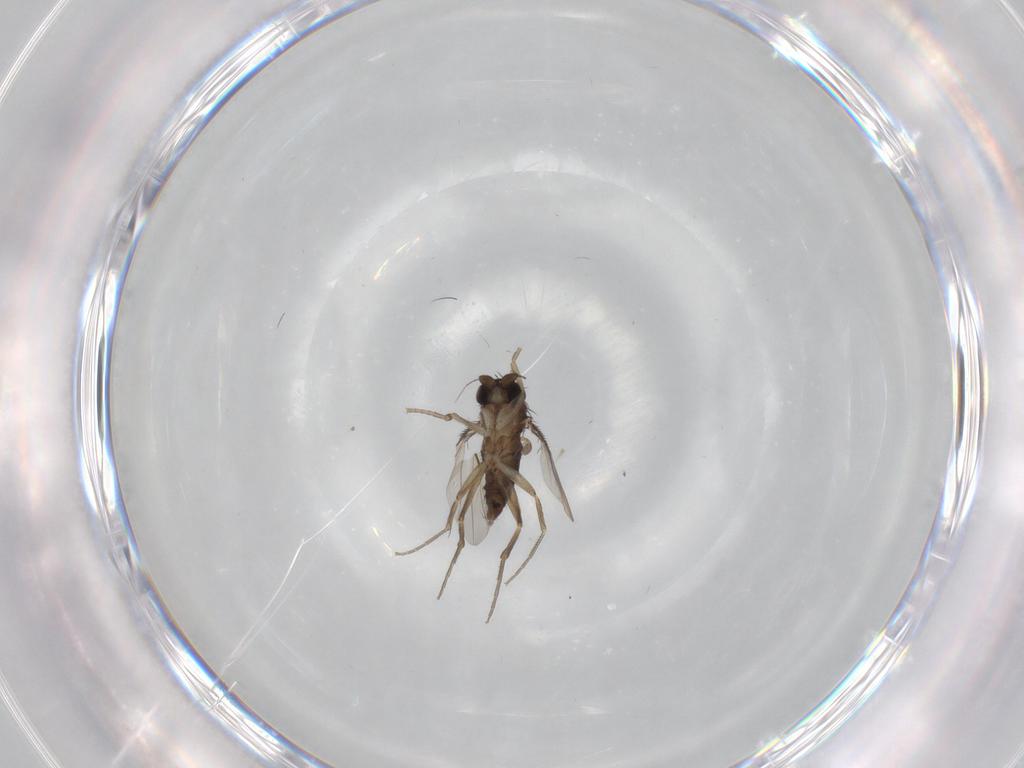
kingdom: Animalia
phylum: Arthropoda
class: Insecta
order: Diptera
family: Phoridae
